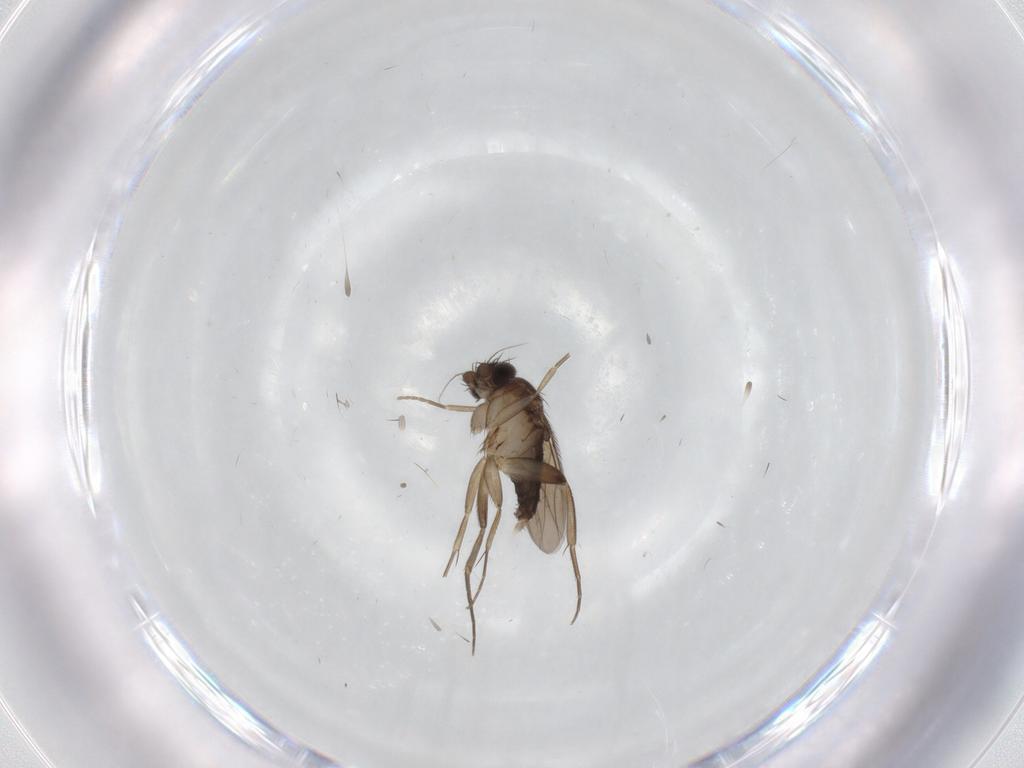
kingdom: Animalia
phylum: Arthropoda
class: Insecta
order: Diptera
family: Phoridae
